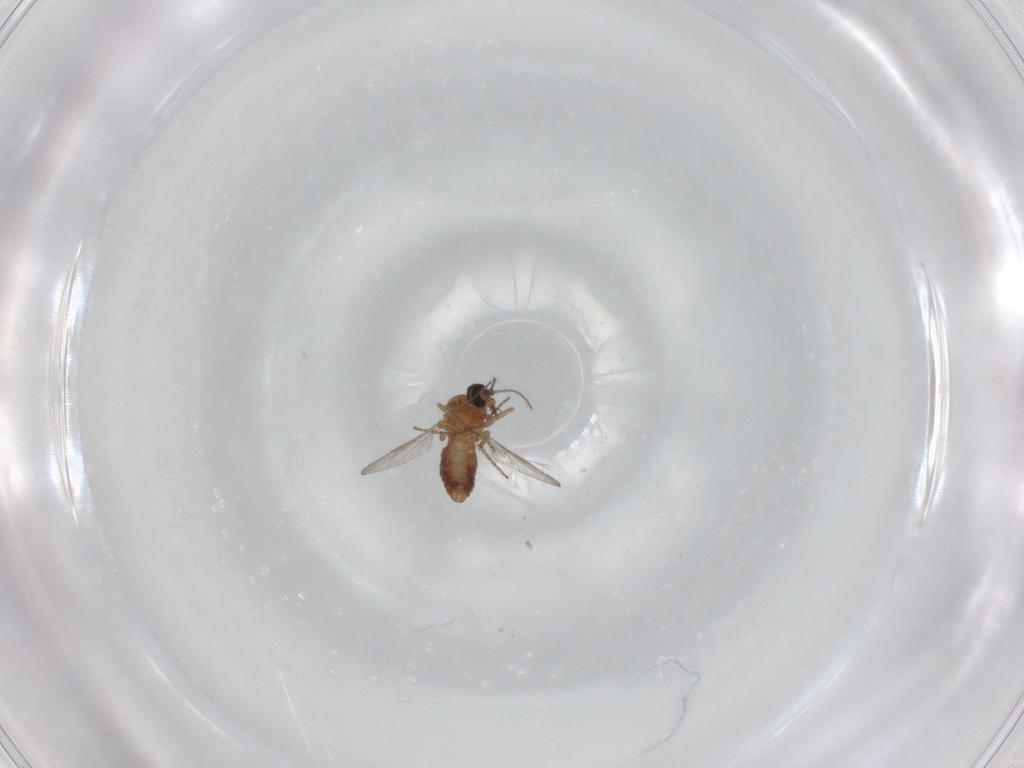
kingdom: Animalia
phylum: Arthropoda
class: Insecta
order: Diptera
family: Ceratopogonidae
